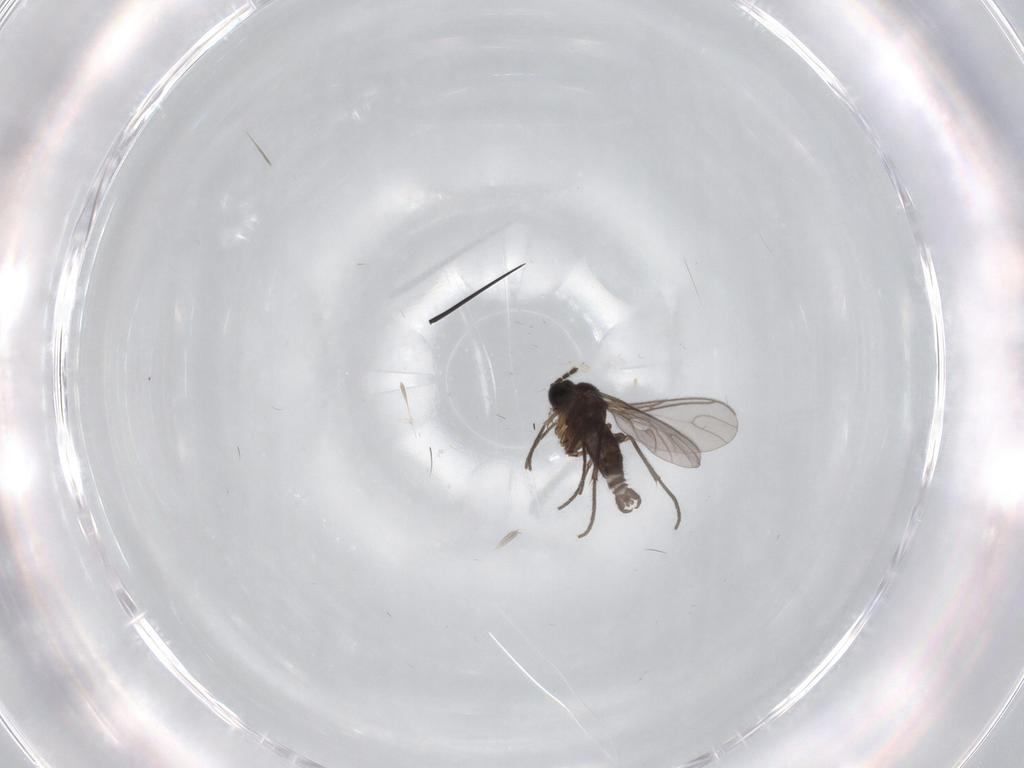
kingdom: Animalia
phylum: Arthropoda
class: Insecta
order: Diptera
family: Sciaridae
